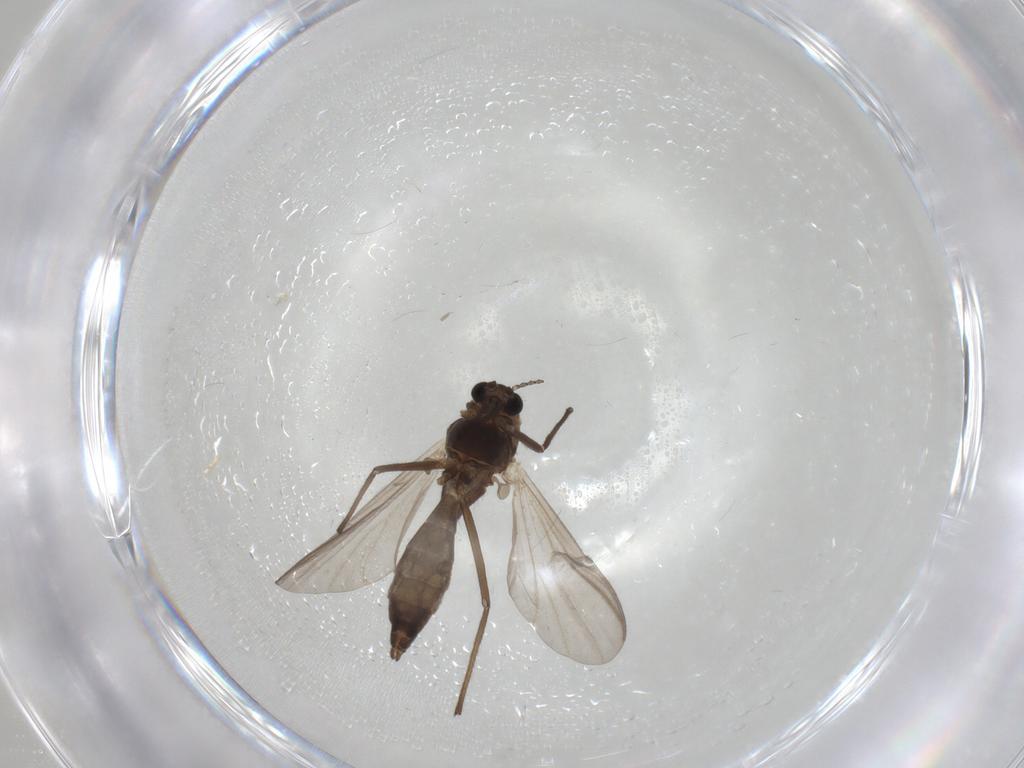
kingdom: Animalia
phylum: Arthropoda
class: Insecta
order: Diptera
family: Chironomidae
